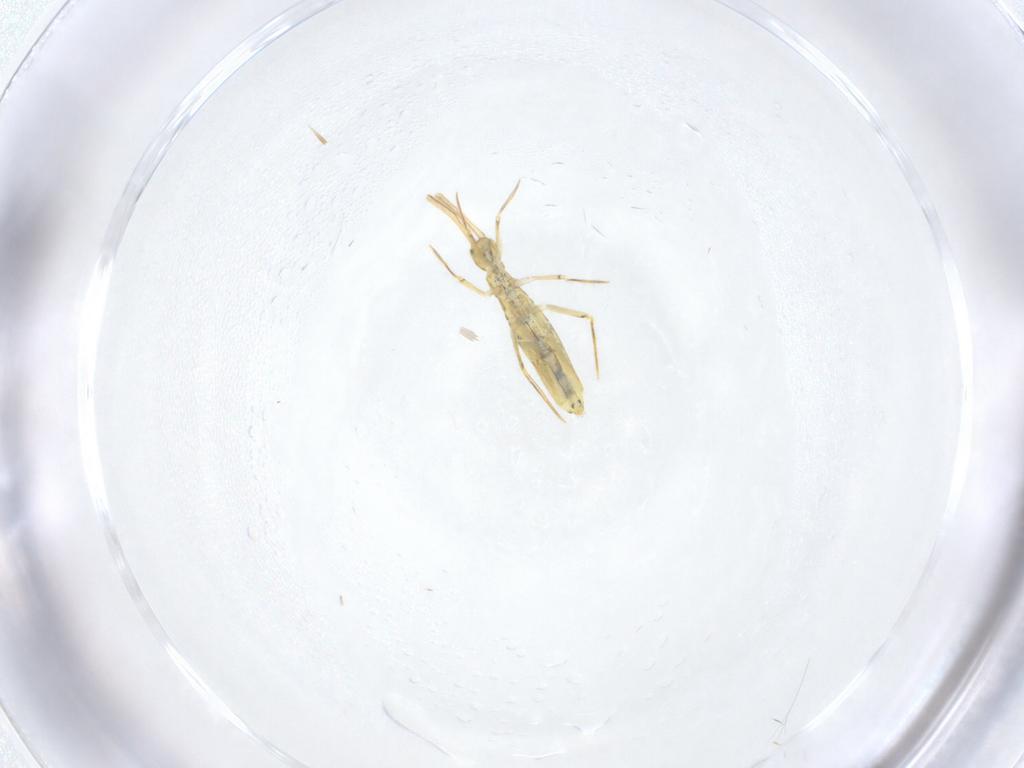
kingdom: Animalia
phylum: Arthropoda
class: Collembola
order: Entomobryomorpha
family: Entomobryidae
